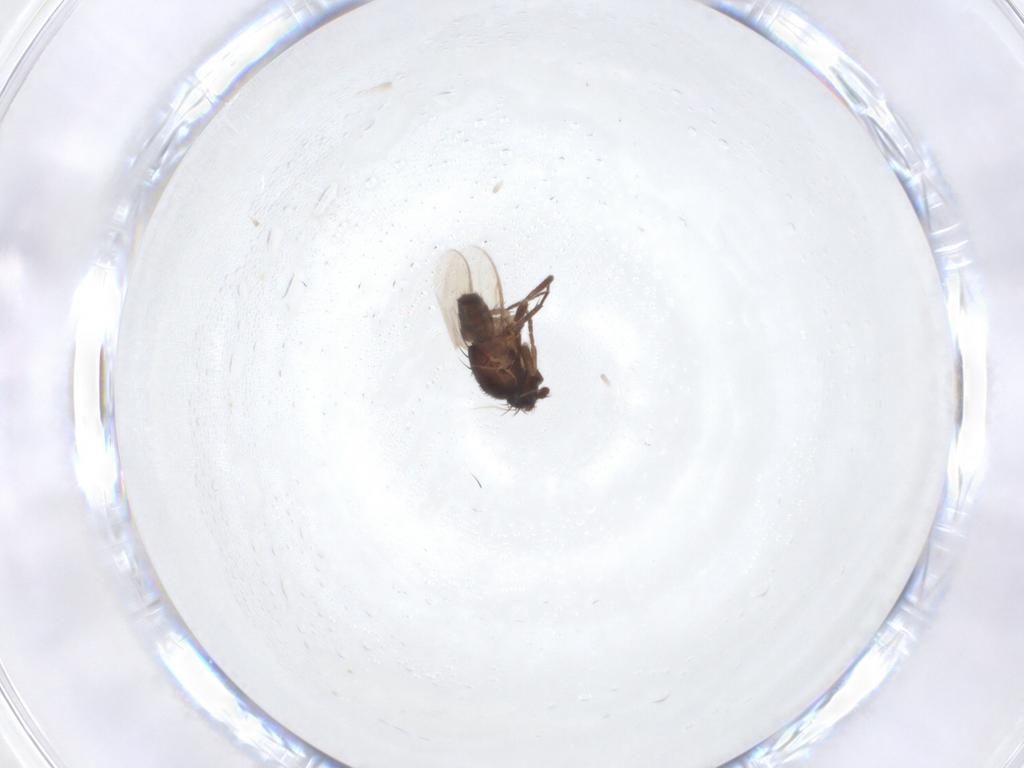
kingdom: Animalia
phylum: Arthropoda
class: Insecta
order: Diptera
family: Sphaeroceridae
